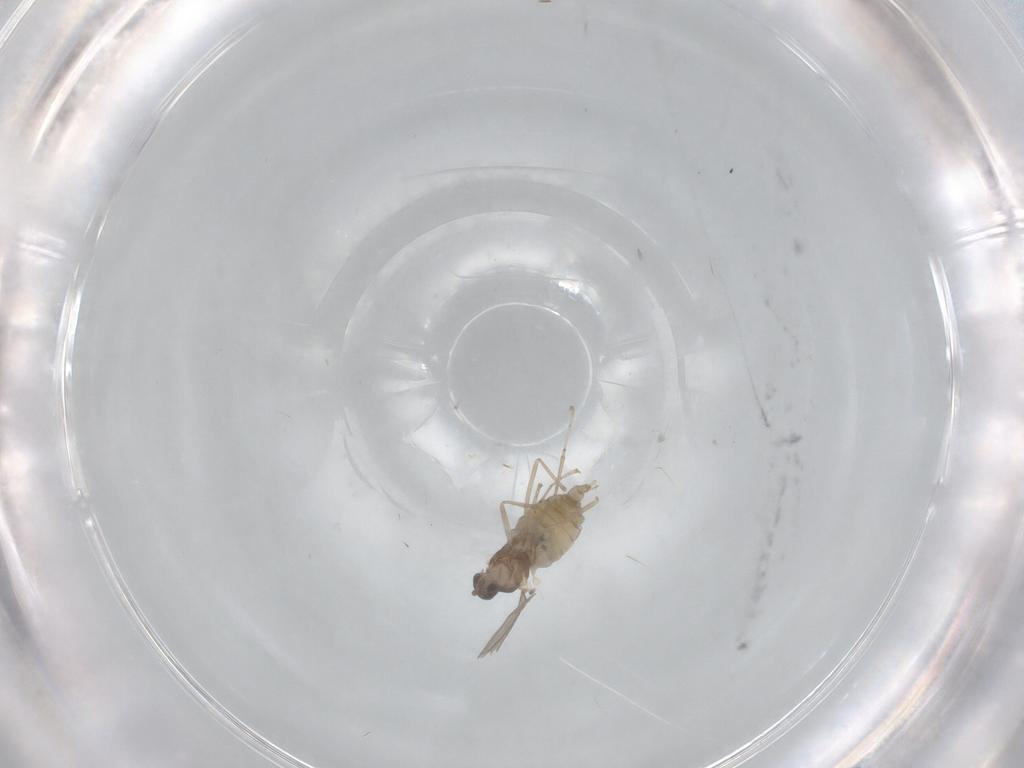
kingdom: Animalia
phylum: Arthropoda
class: Insecta
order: Diptera
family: Cecidomyiidae
